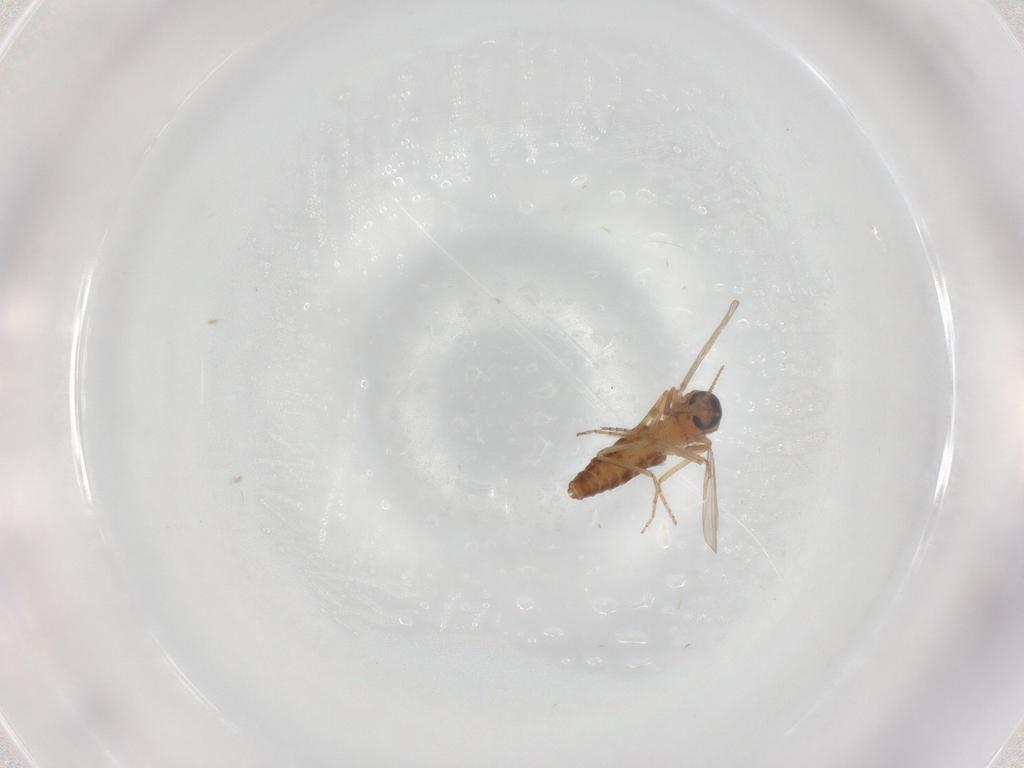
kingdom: Animalia
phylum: Arthropoda
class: Insecta
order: Diptera
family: Ceratopogonidae
